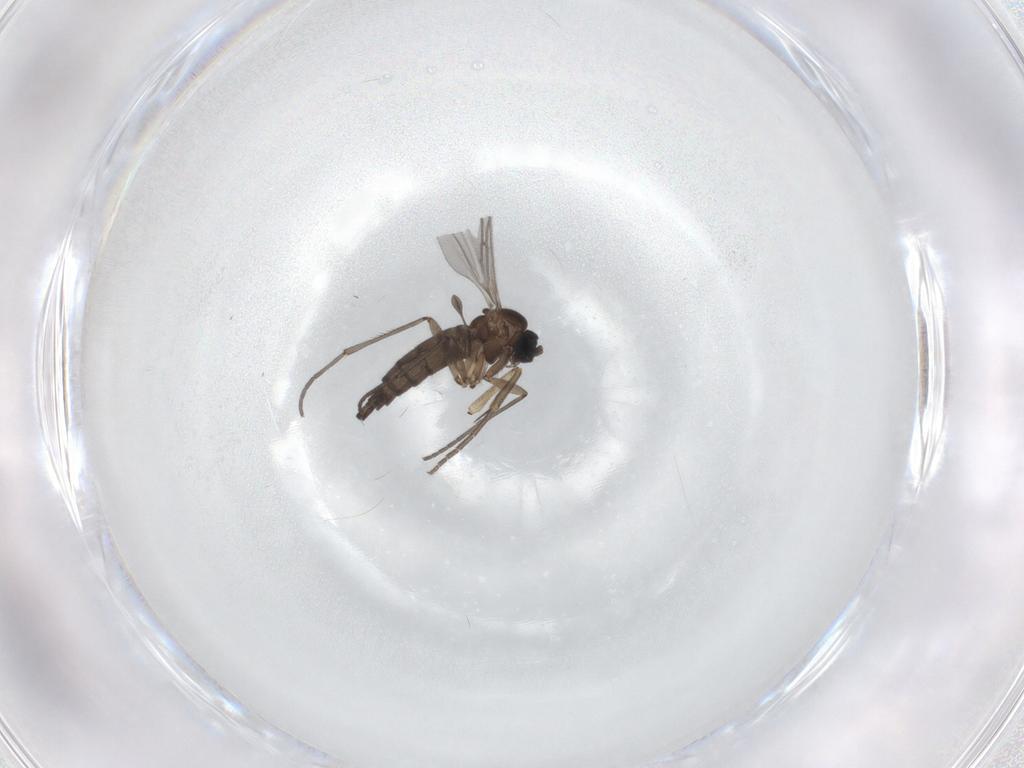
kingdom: Animalia
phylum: Arthropoda
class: Insecta
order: Diptera
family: Mycetophilidae
